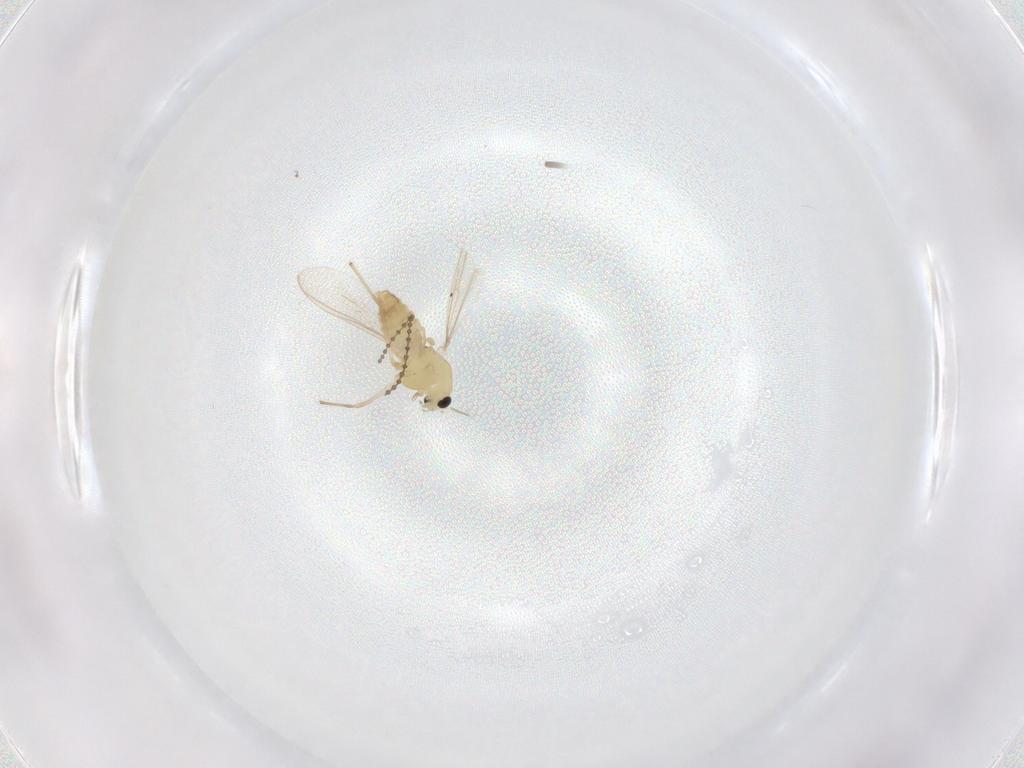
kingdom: Animalia
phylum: Arthropoda
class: Insecta
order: Diptera
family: Chironomidae
